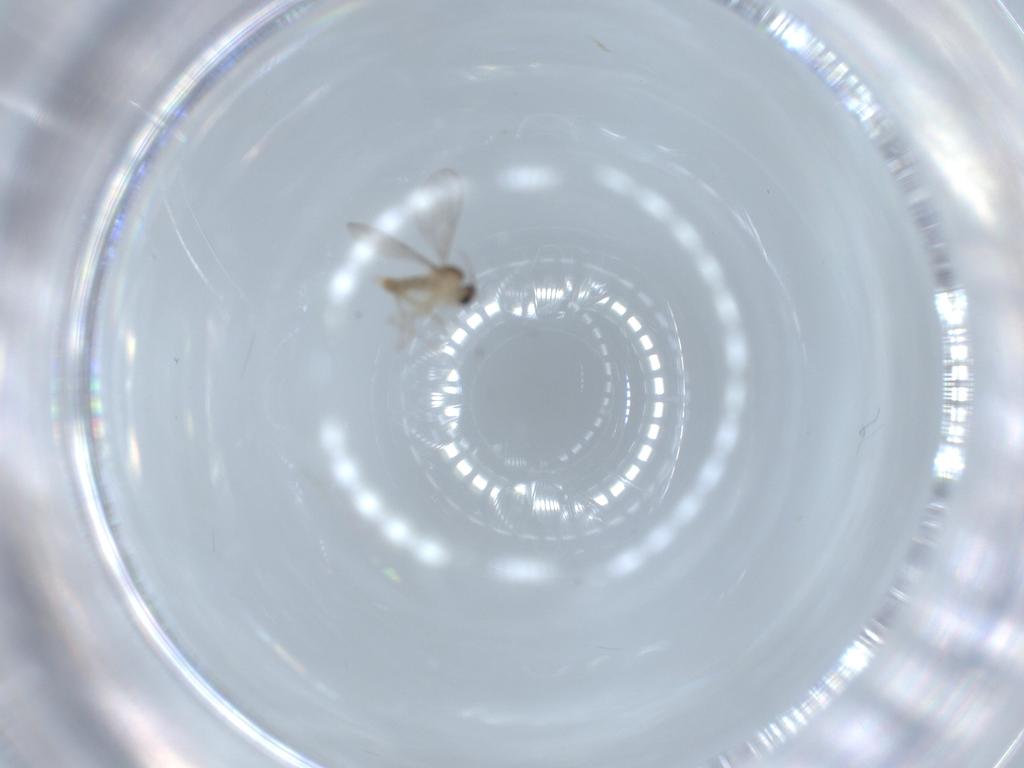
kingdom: Animalia
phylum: Arthropoda
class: Insecta
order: Diptera
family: Cecidomyiidae
